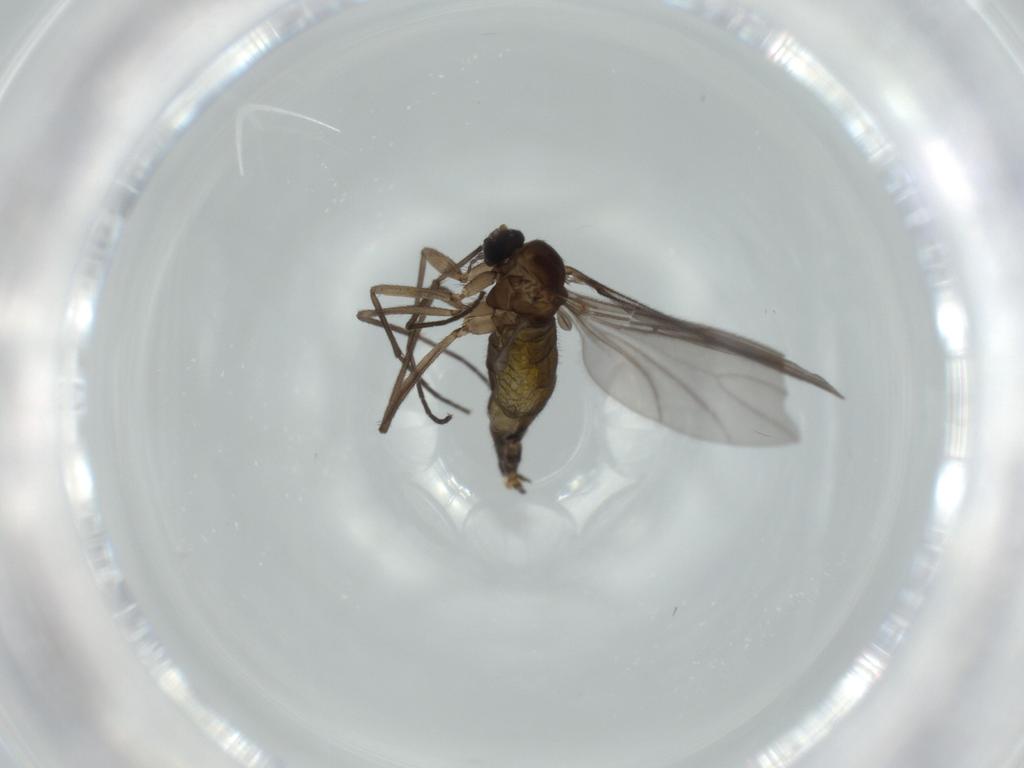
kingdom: Animalia
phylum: Arthropoda
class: Insecta
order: Diptera
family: Sciaridae
